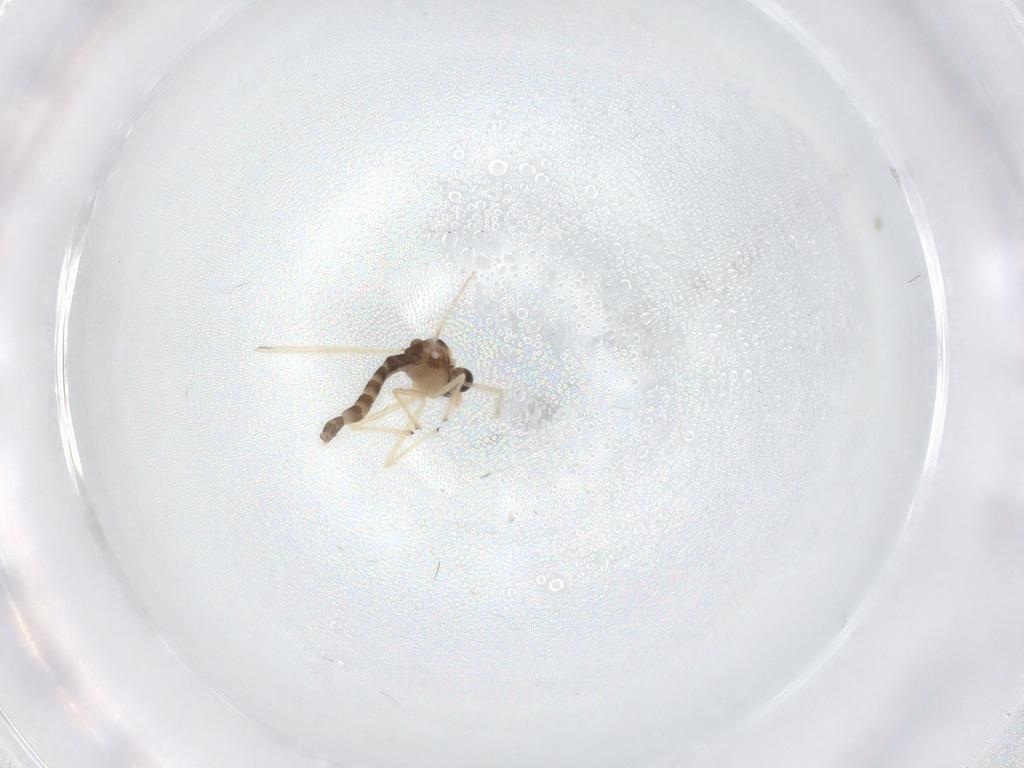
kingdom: Animalia
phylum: Arthropoda
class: Insecta
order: Diptera
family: Chironomidae
